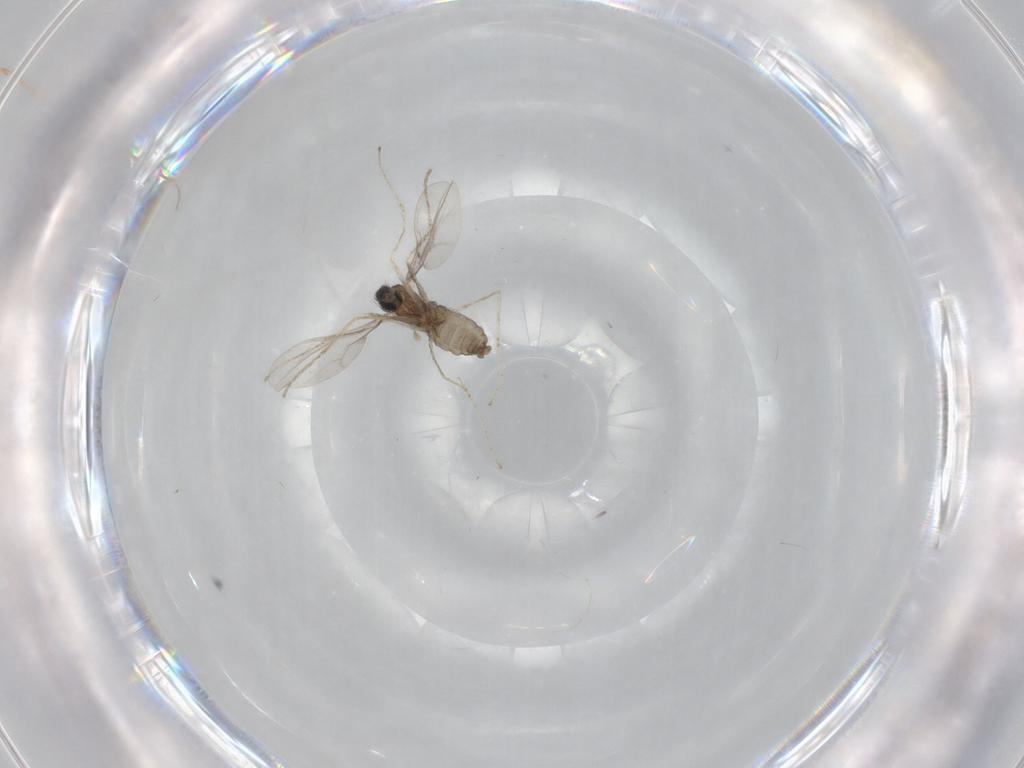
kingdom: Animalia
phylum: Arthropoda
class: Insecta
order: Diptera
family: Cecidomyiidae
